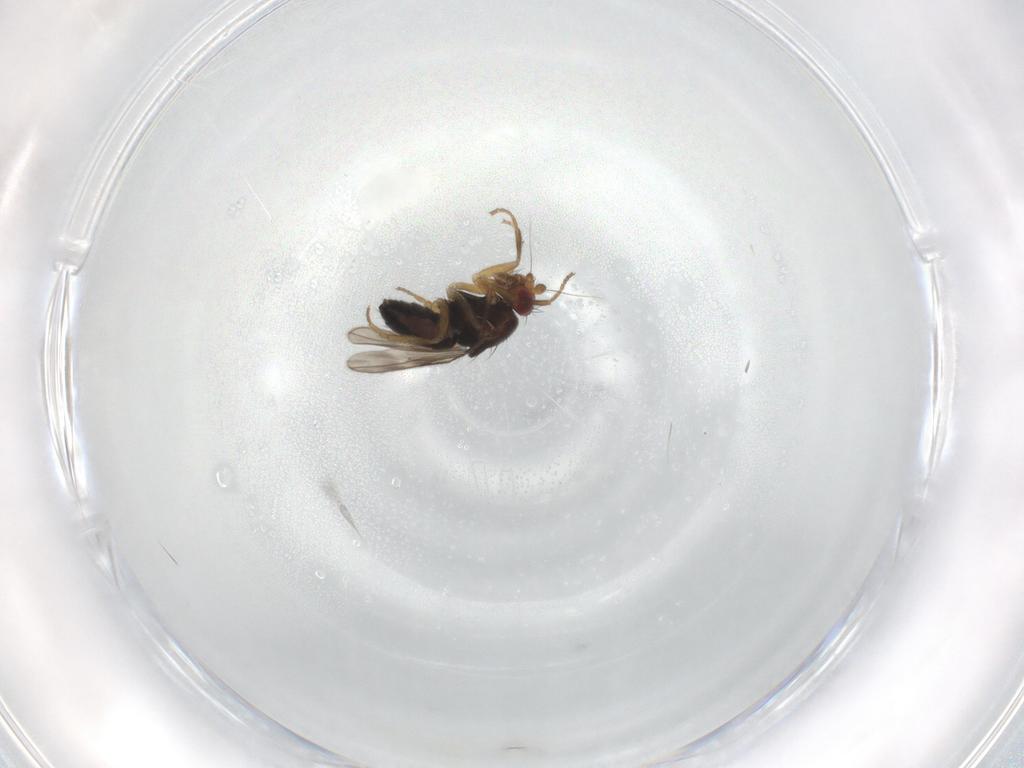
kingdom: Animalia
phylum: Arthropoda
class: Insecta
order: Diptera
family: Sphaeroceridae
